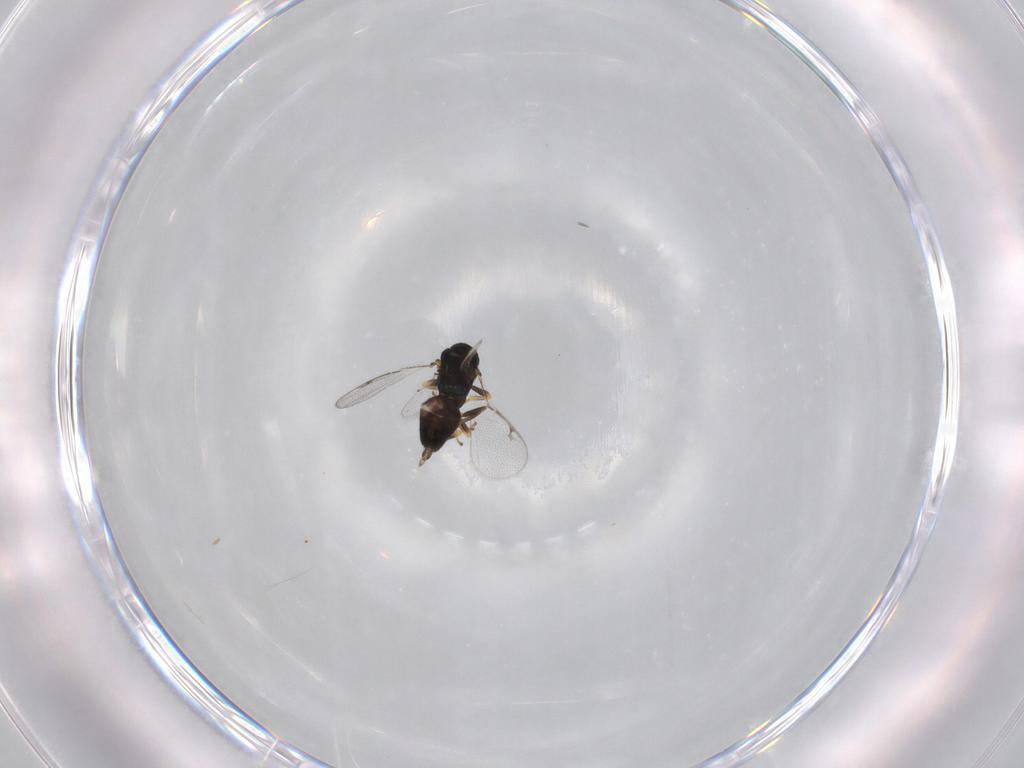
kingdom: Animalia
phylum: Arthropoda
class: Insecta
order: Hymenoptera
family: Pteromalidae
